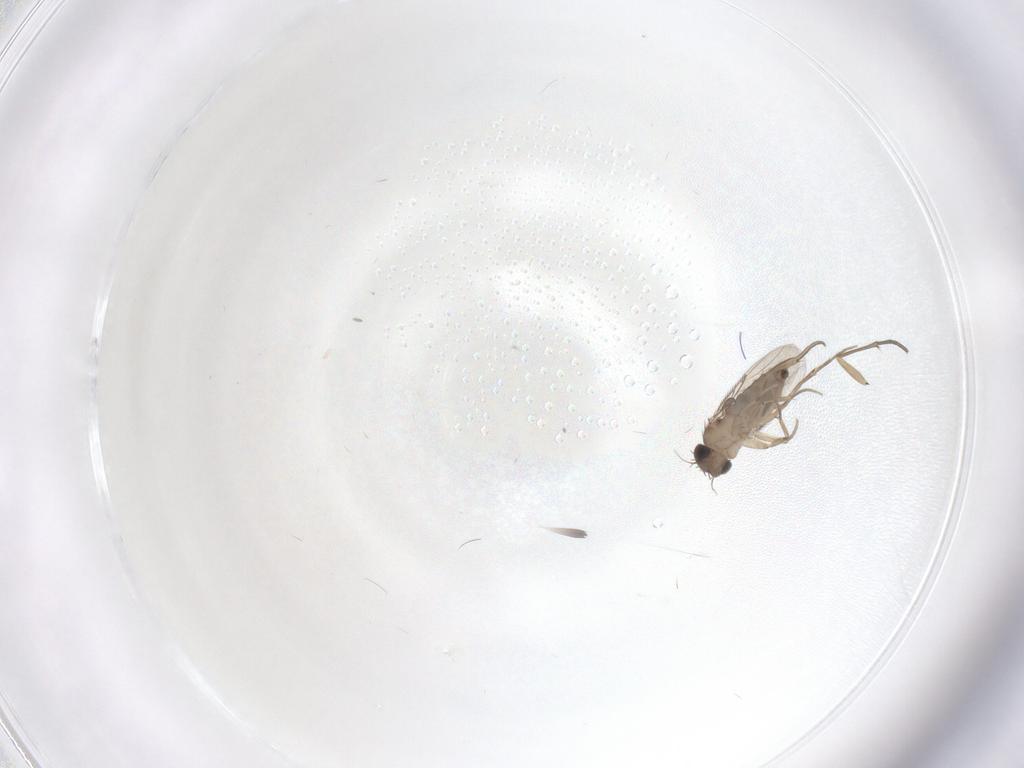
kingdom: Animalia
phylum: Arthropoda
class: Insecta
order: Diptera
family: Phoridae
